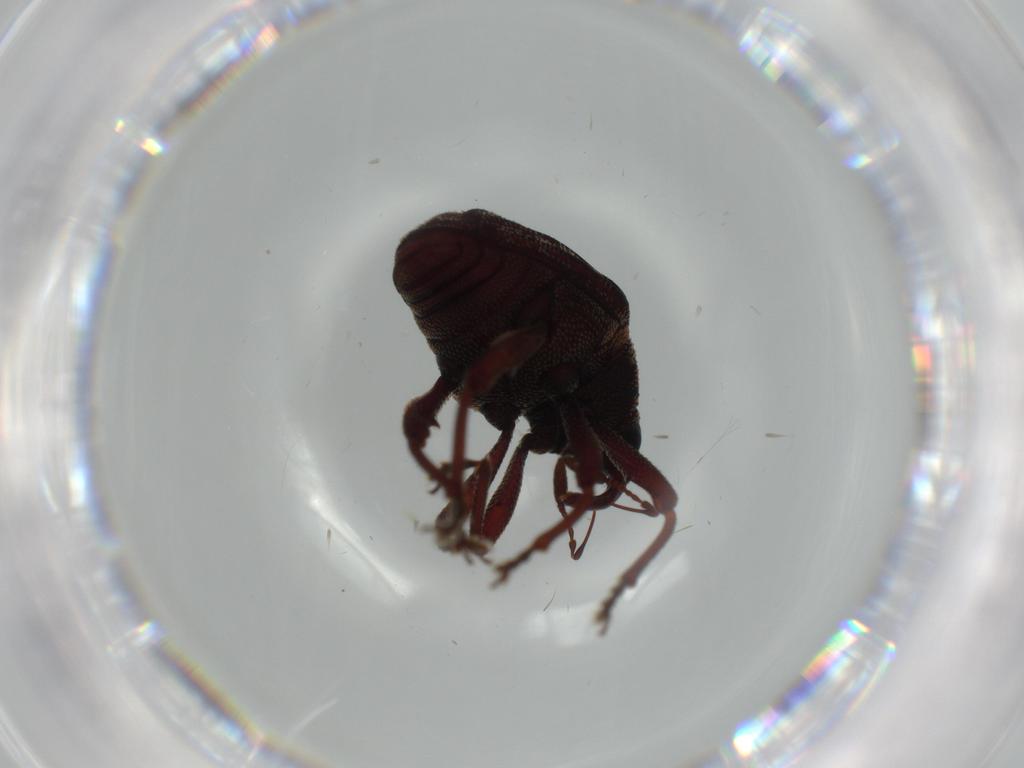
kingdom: Animalia
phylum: Arthropoda
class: Insecta
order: Coleoptera
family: Curculionidae
